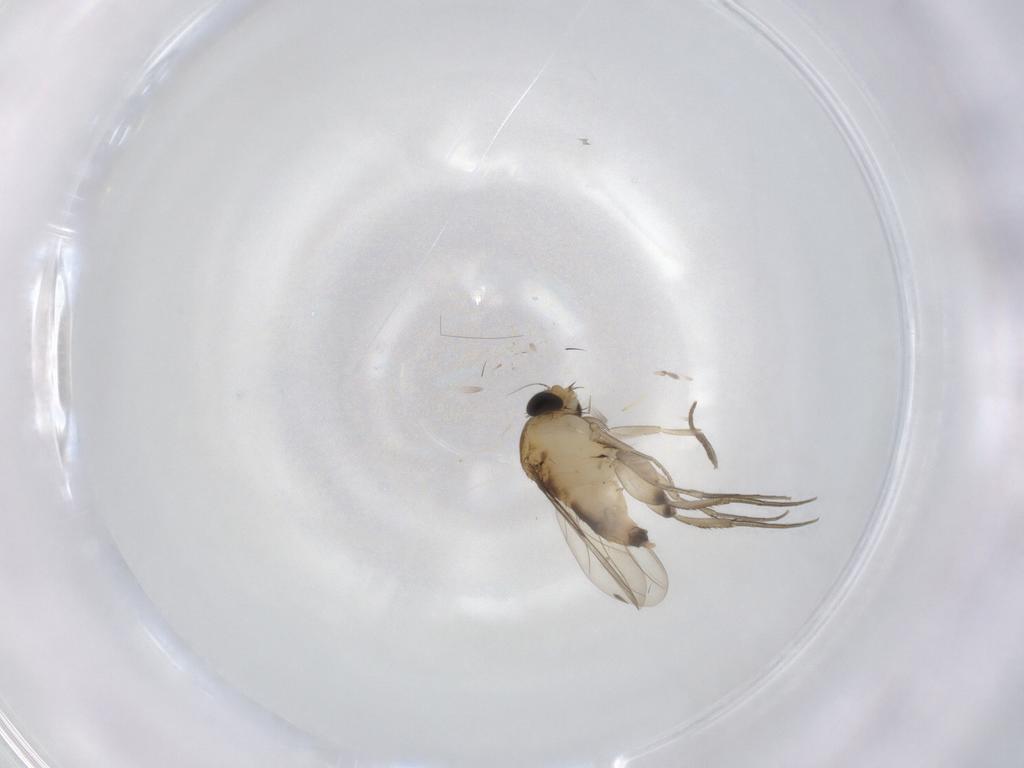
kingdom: Animalia
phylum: Arthropoda
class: Insecta
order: Diptera
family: Phoridae
